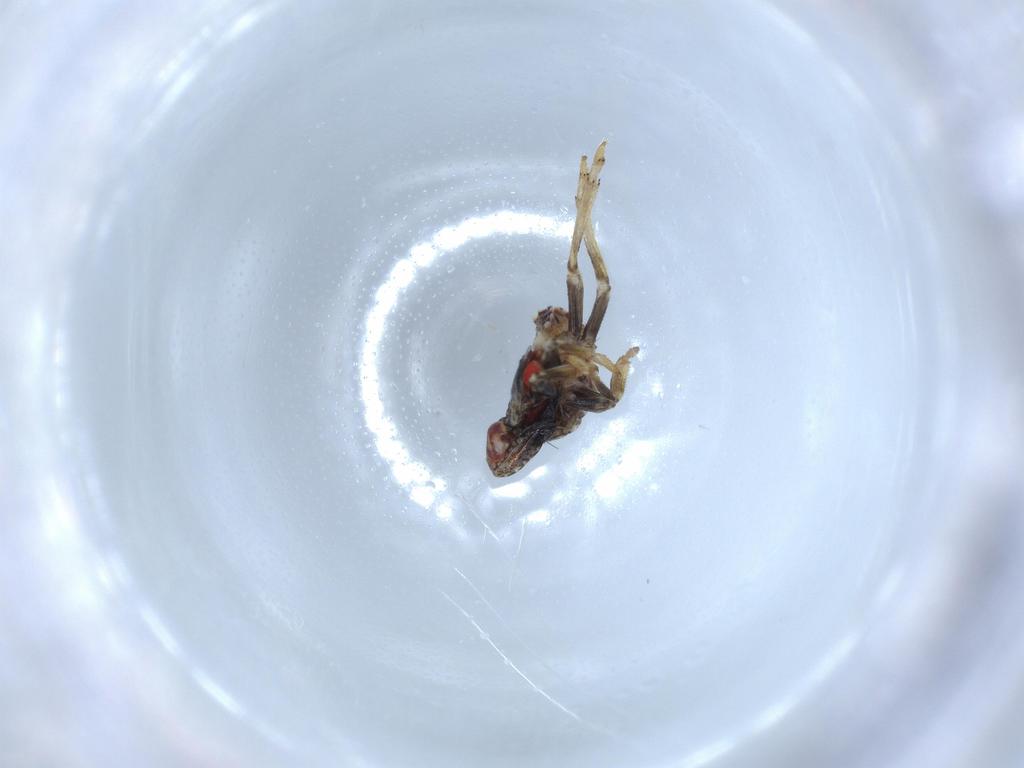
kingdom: Animalia
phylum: Arthropoda
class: Insecta
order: Hemiptera
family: Issidae
